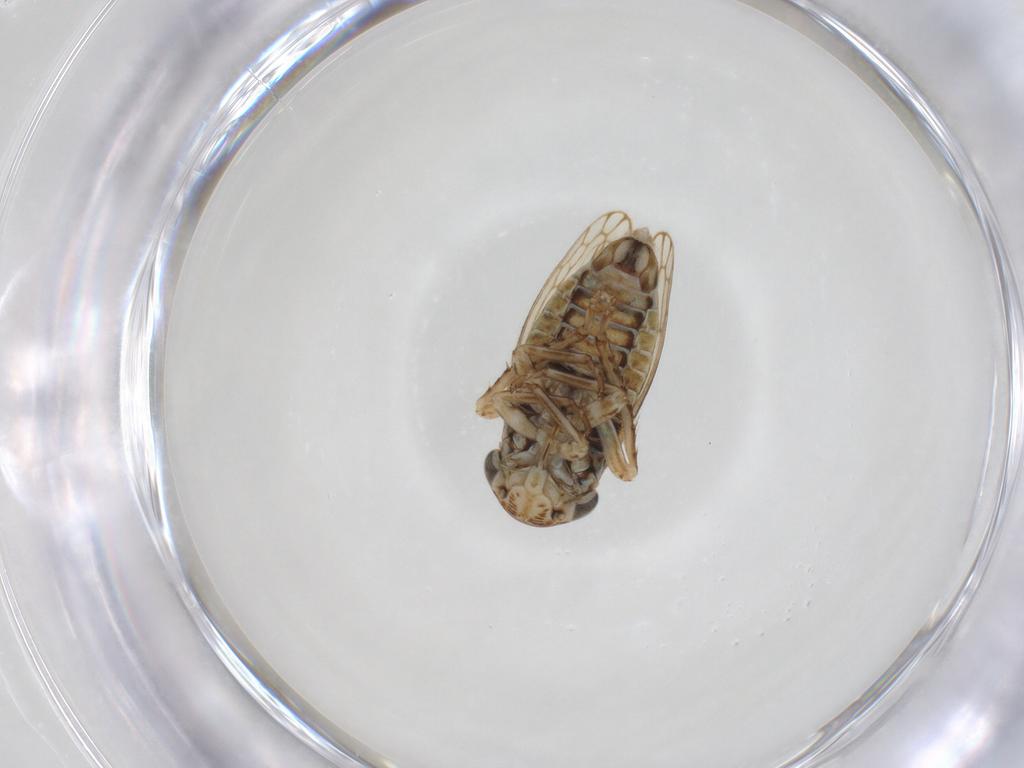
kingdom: Animalia
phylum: Arthropoda
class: Insecta
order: Hemiptera
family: Cicadellidae
